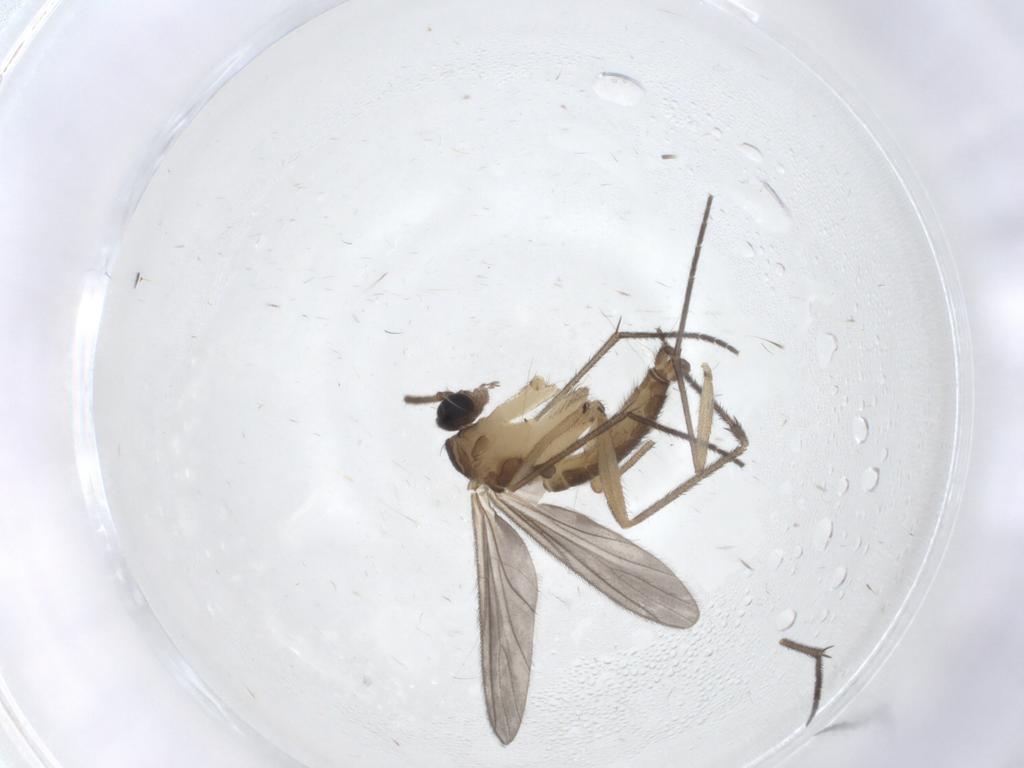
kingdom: Animalia
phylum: Arthropoda
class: Insecta
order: Diptera
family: Sciaridae
